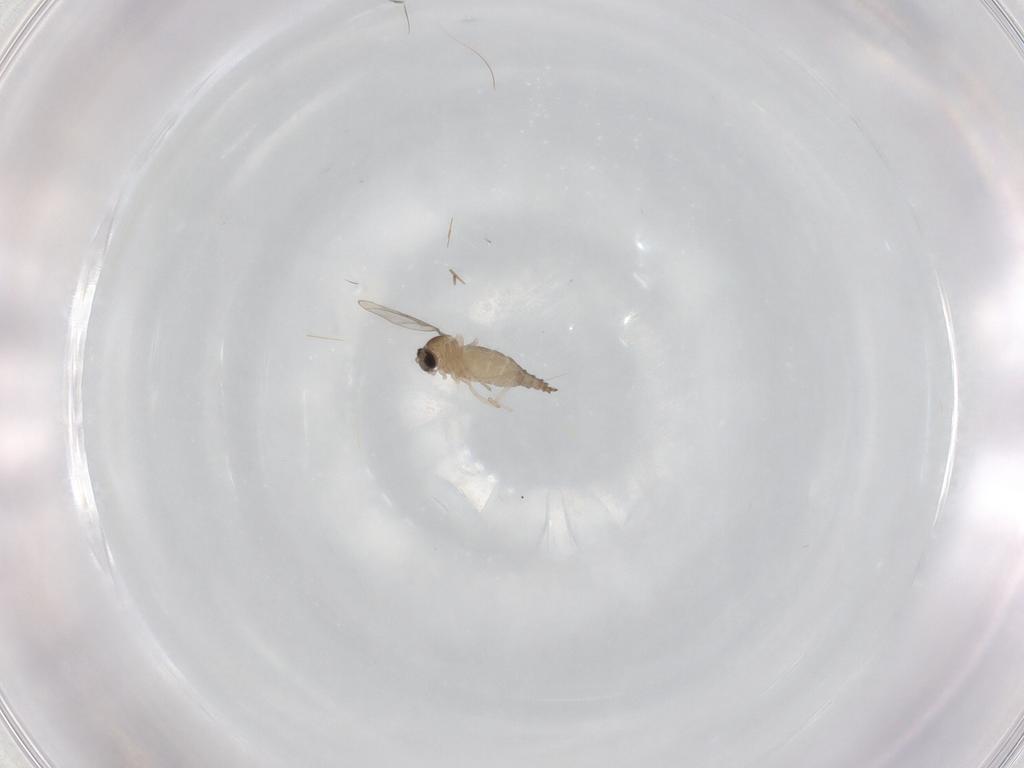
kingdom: Animalia
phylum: Arthropoda
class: Insecta
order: Diptera
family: Cecidomyiidae
